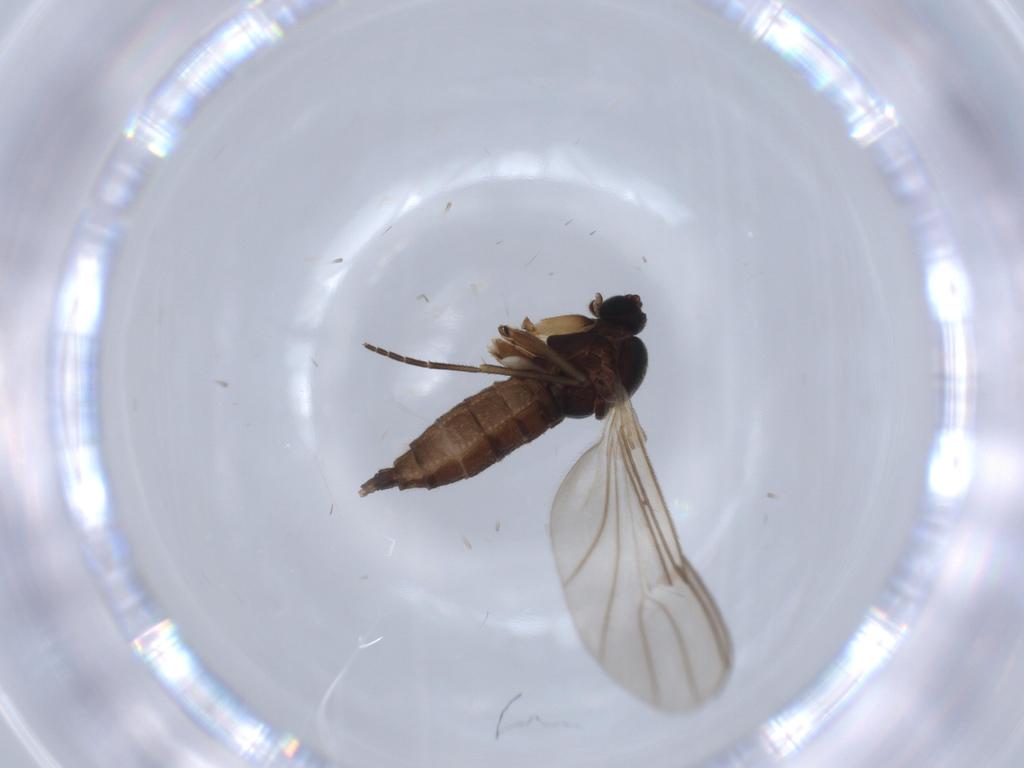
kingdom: Animalia
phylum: Arthropoda
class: Insecta
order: Diptera
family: Sciaridae
